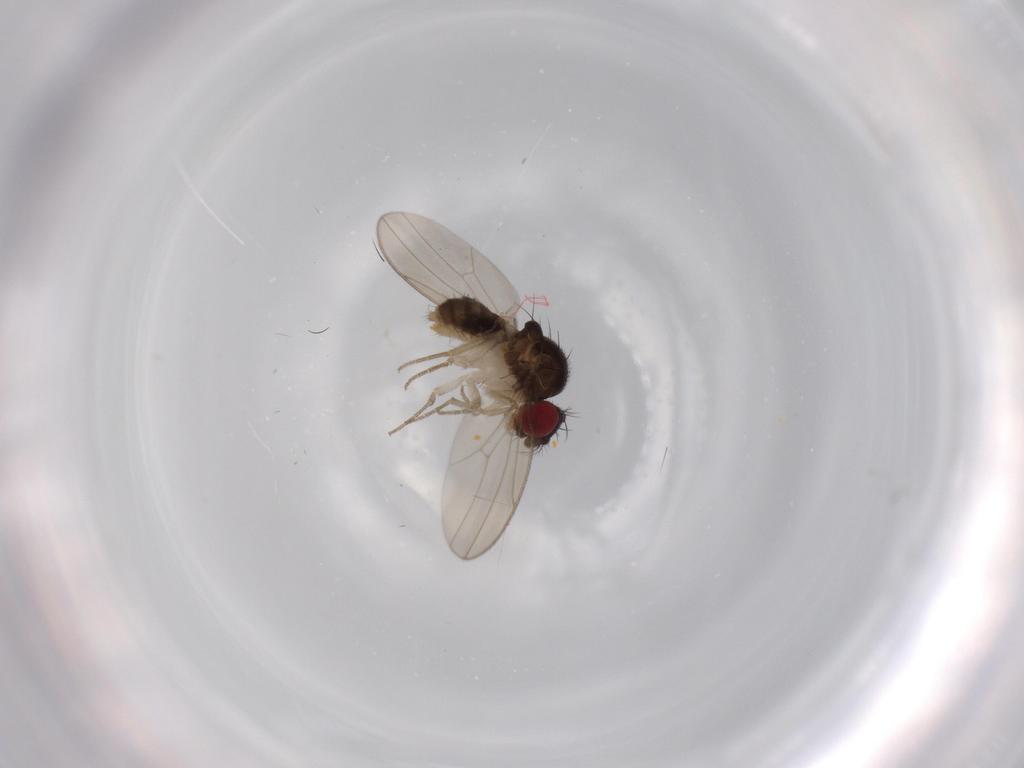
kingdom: Animalia
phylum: Arthropoda
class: Insecta
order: Diptera
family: Drosophilidae
